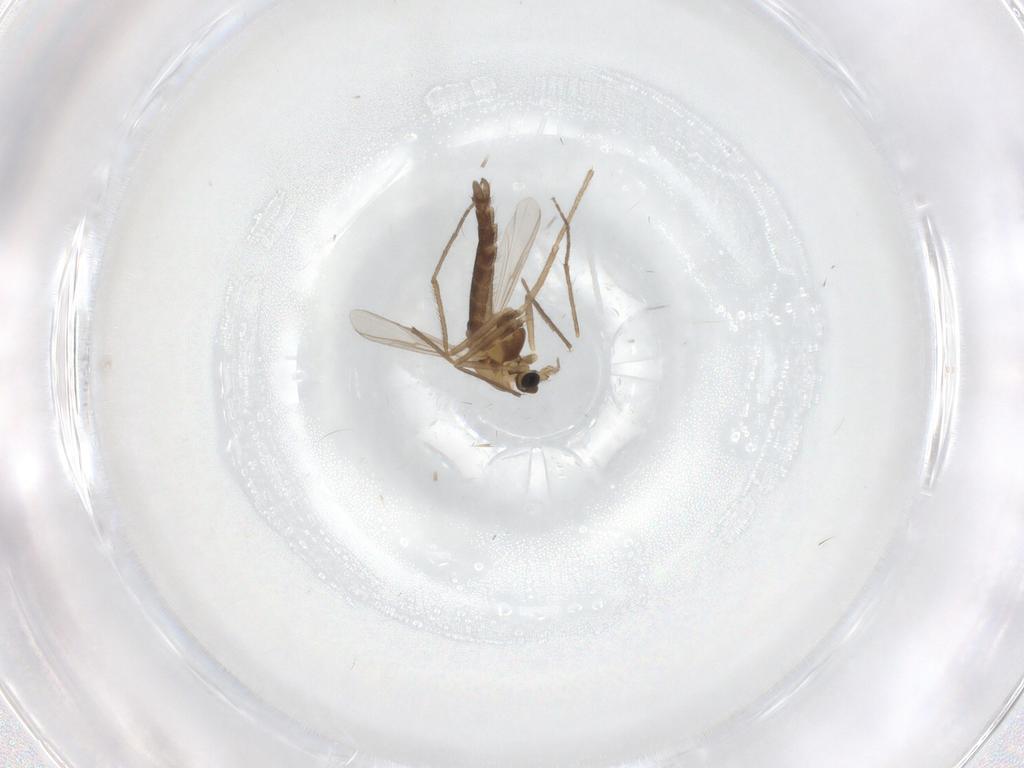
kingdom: Animalia
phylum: Arthropoda
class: Insecta
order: Diptera
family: Chironomidae
